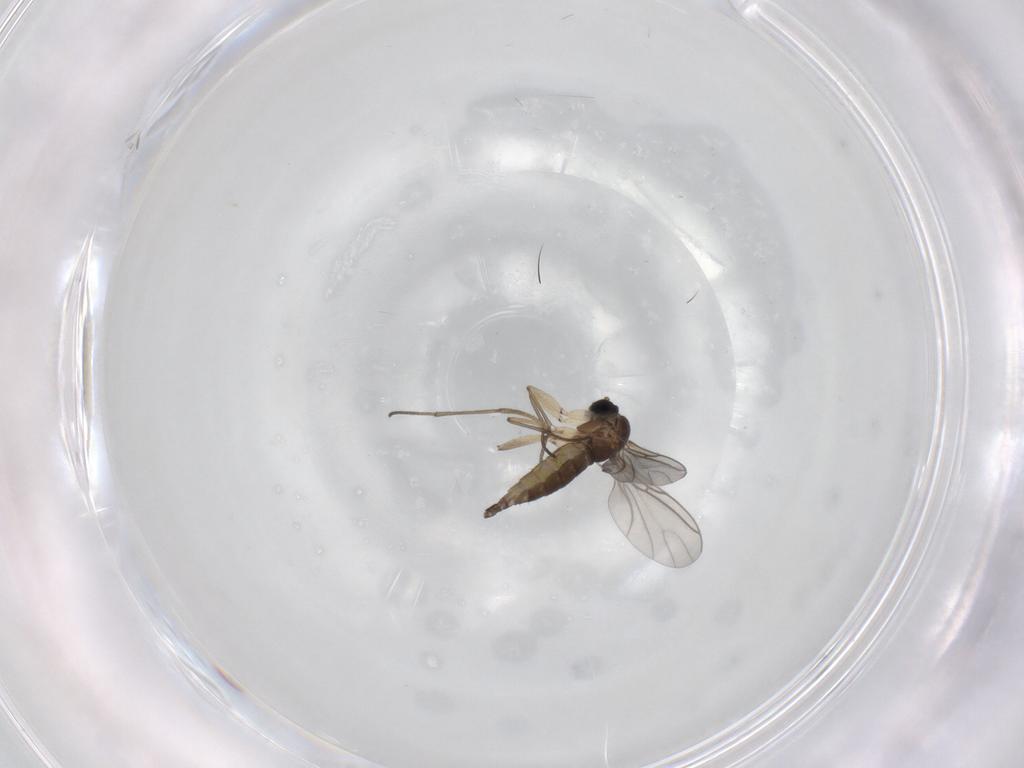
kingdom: Animalia
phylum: Arthropoda
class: Insecta
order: Diptera
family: Sciaridae
